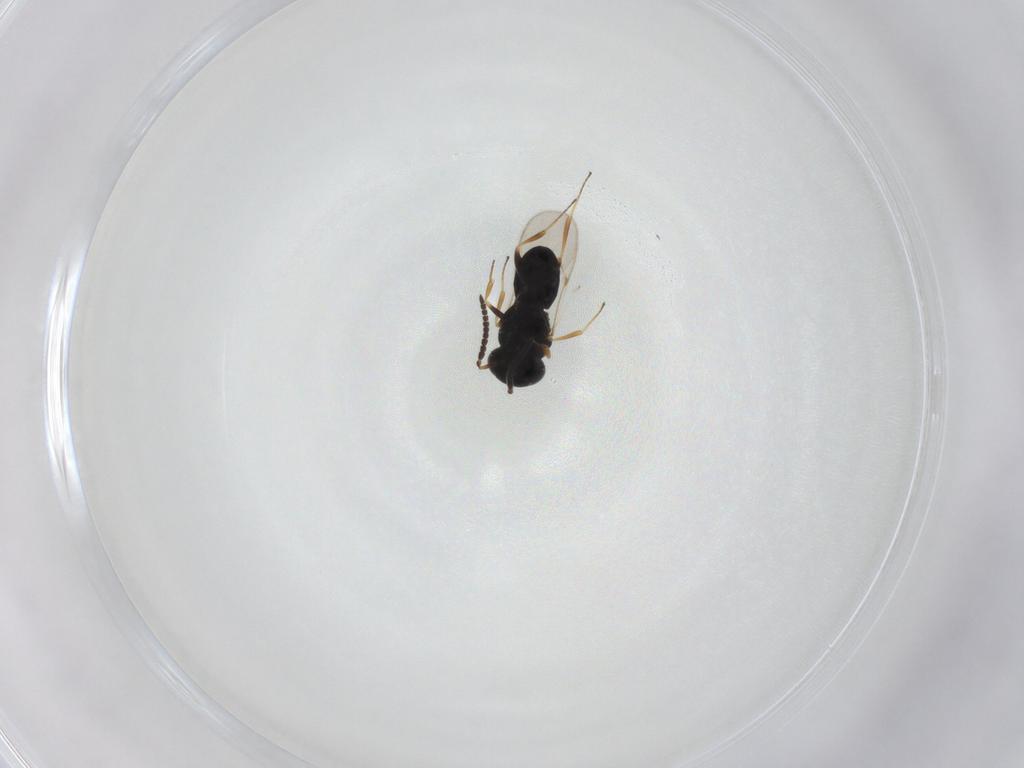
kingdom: Animalia
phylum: Arthropoda
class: Insecta
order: Hymenoptera
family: Scelionidae
